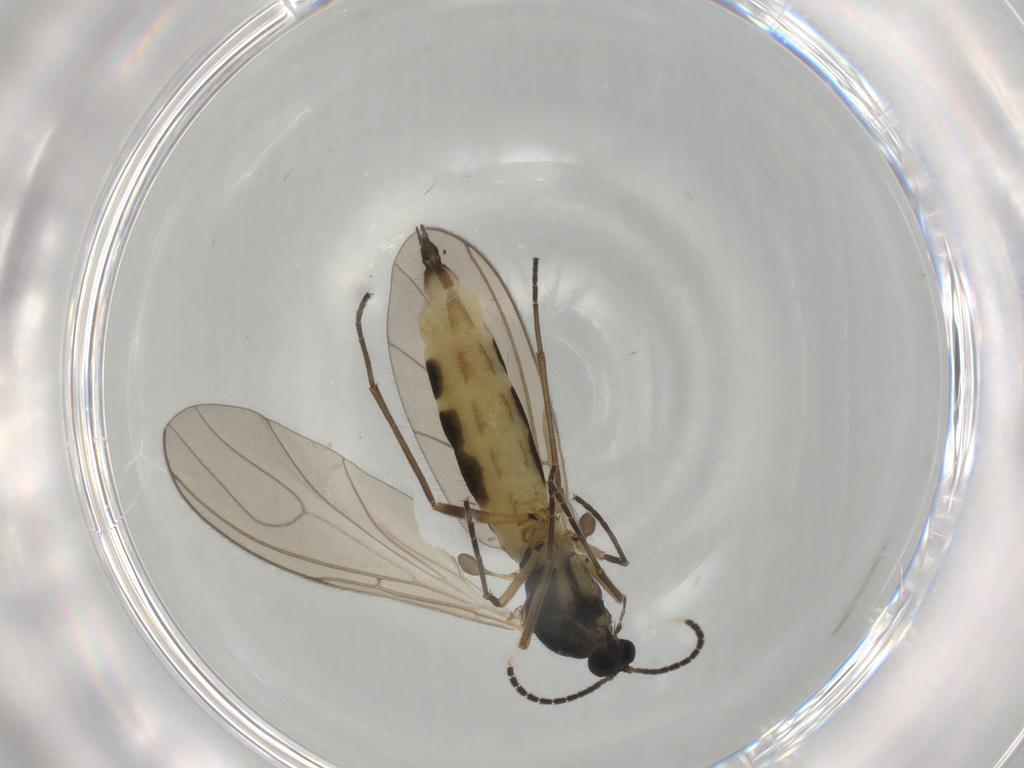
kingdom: Animalia
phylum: Arthropoda
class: Insecta
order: Diptera
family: Sciaridae
